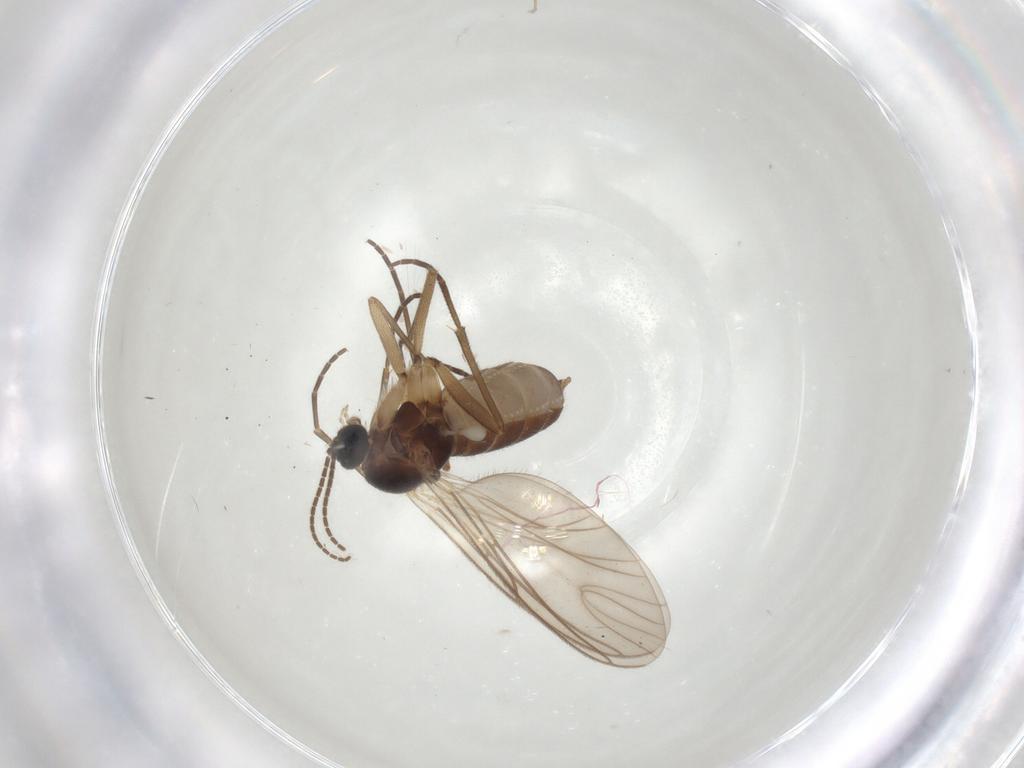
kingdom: Animalia
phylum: Arthropoda
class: Insecta
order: Diptera
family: Sciaridae
